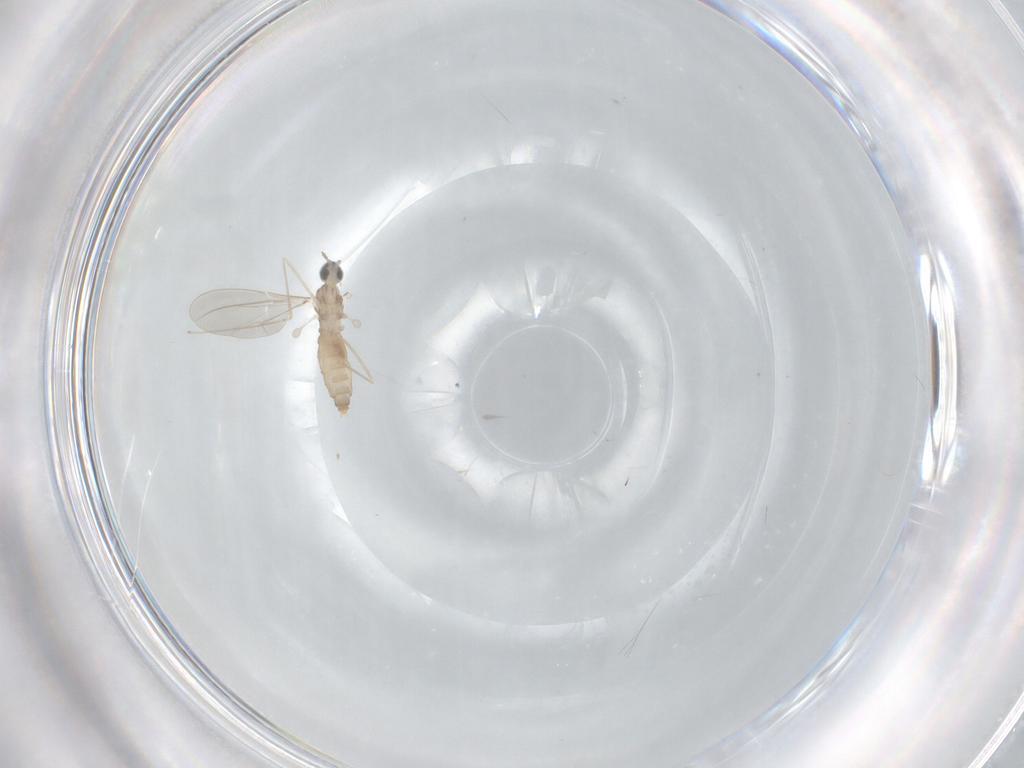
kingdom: Animalia
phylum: Arthropoda
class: Insecta
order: Diptera
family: Cecidomyiidae
